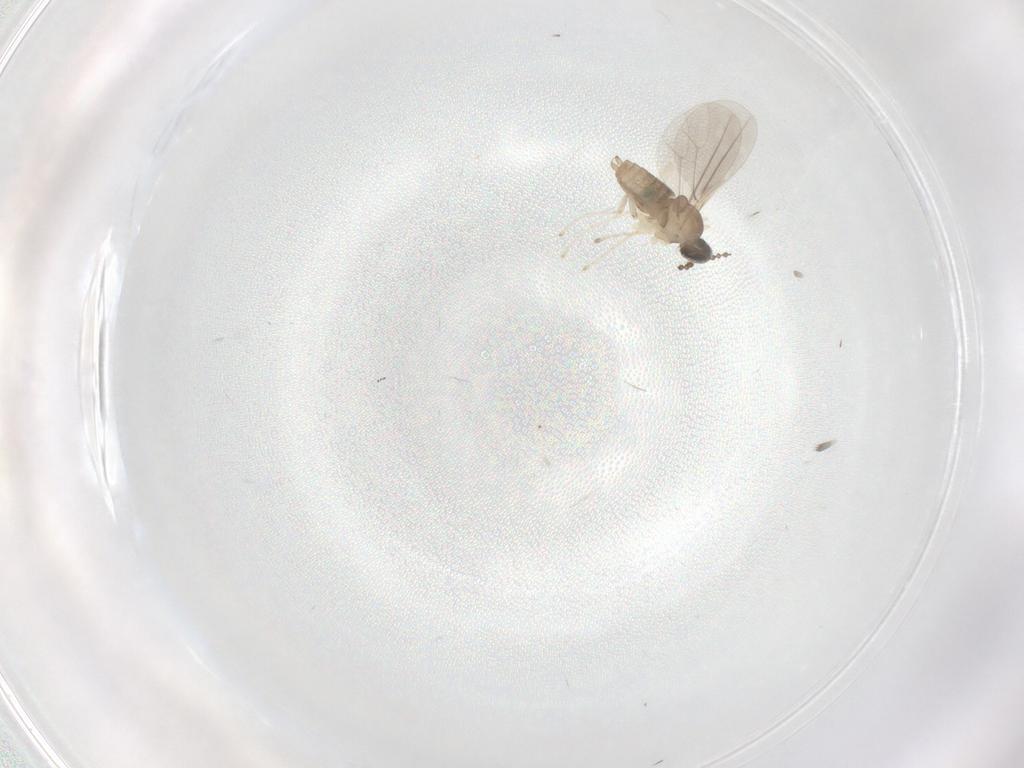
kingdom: Animalia
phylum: Arthropoda
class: Insecta
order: Diptera
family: Cecidomyiidae
